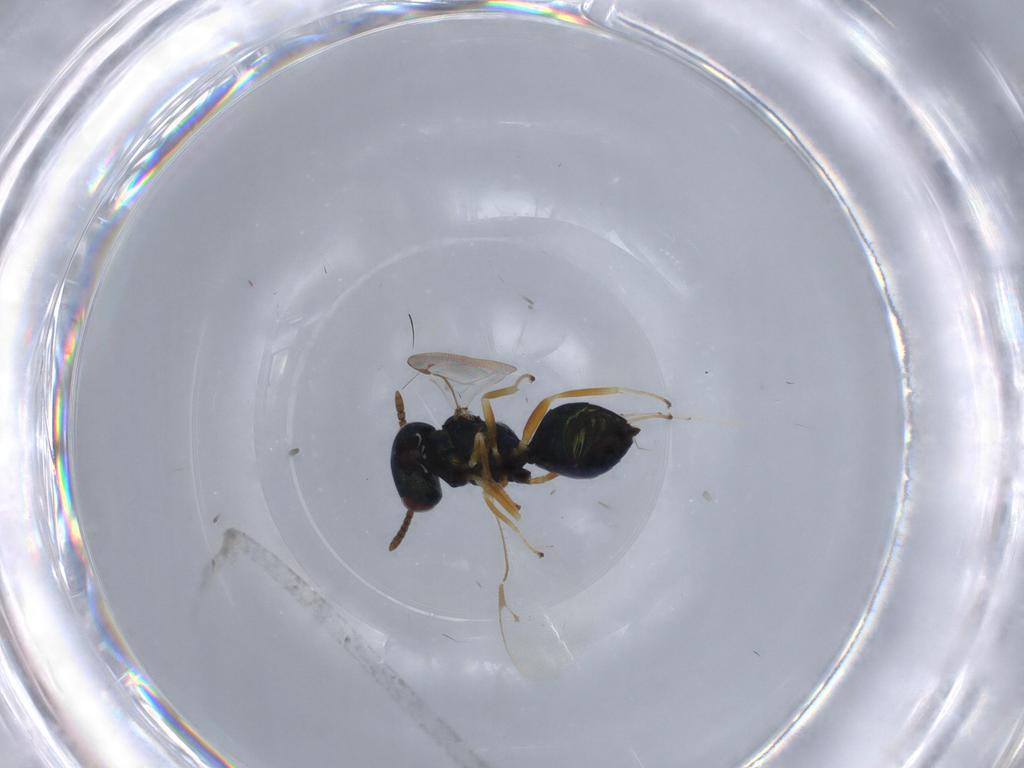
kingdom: Animalia
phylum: Arthropoda
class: Insecta
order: Hymenoptera
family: Pteromalidae
